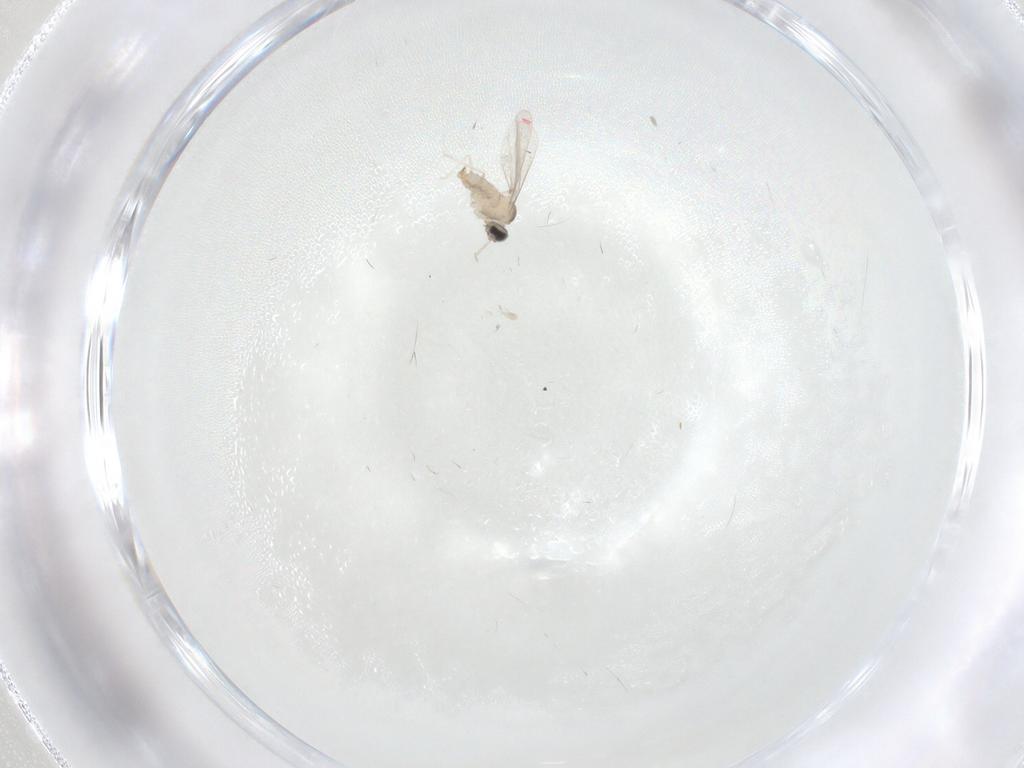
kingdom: Animalia
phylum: Arthropoda
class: Insecta
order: Diptera
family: Cecidomyiidae
